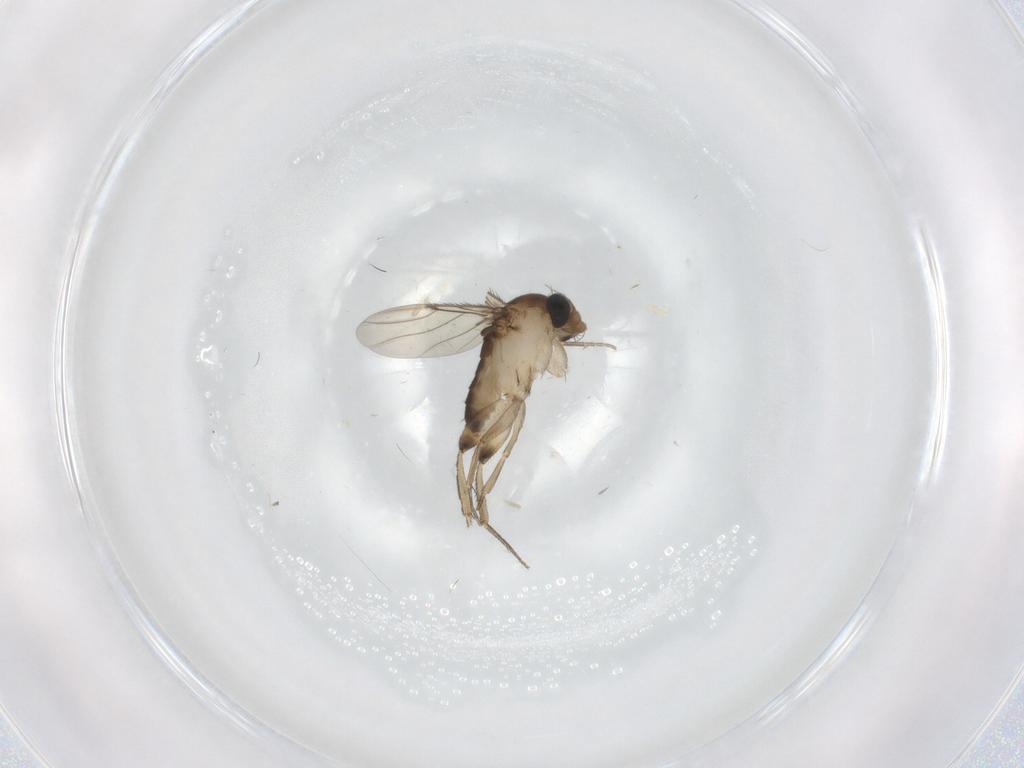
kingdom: Animalia
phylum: Arthropoda
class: Insecta
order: Diptera
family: Phoridae
